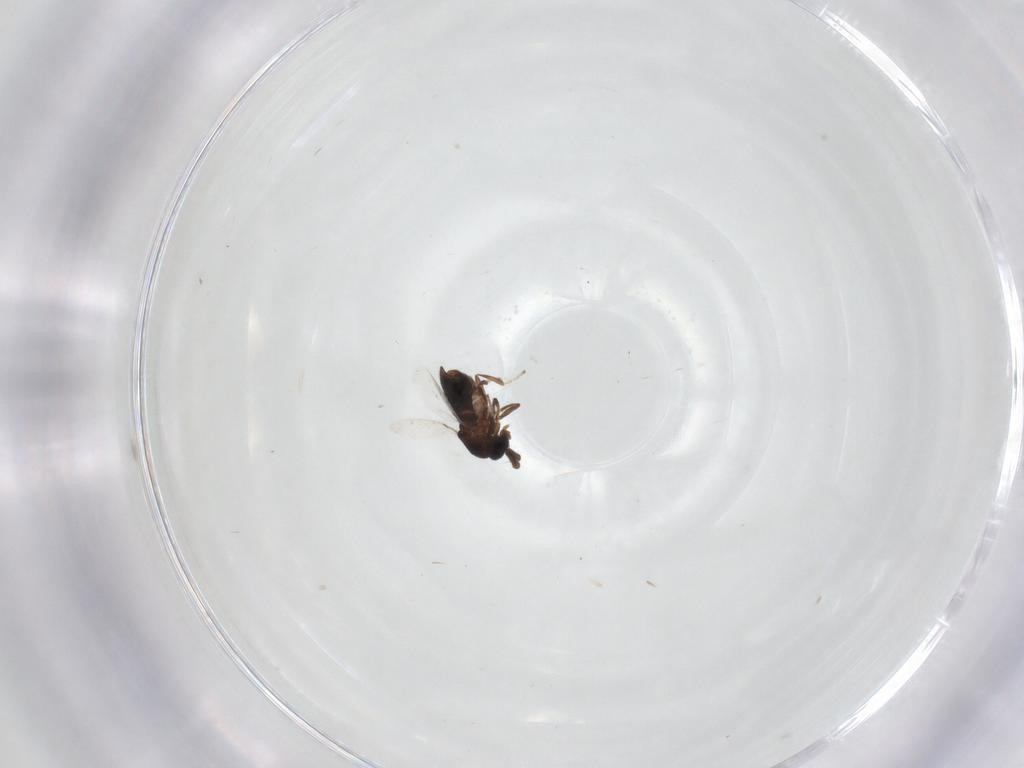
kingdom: Animalia
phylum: Arthropoda
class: Insecta
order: Diptera
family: Scatopsidae
